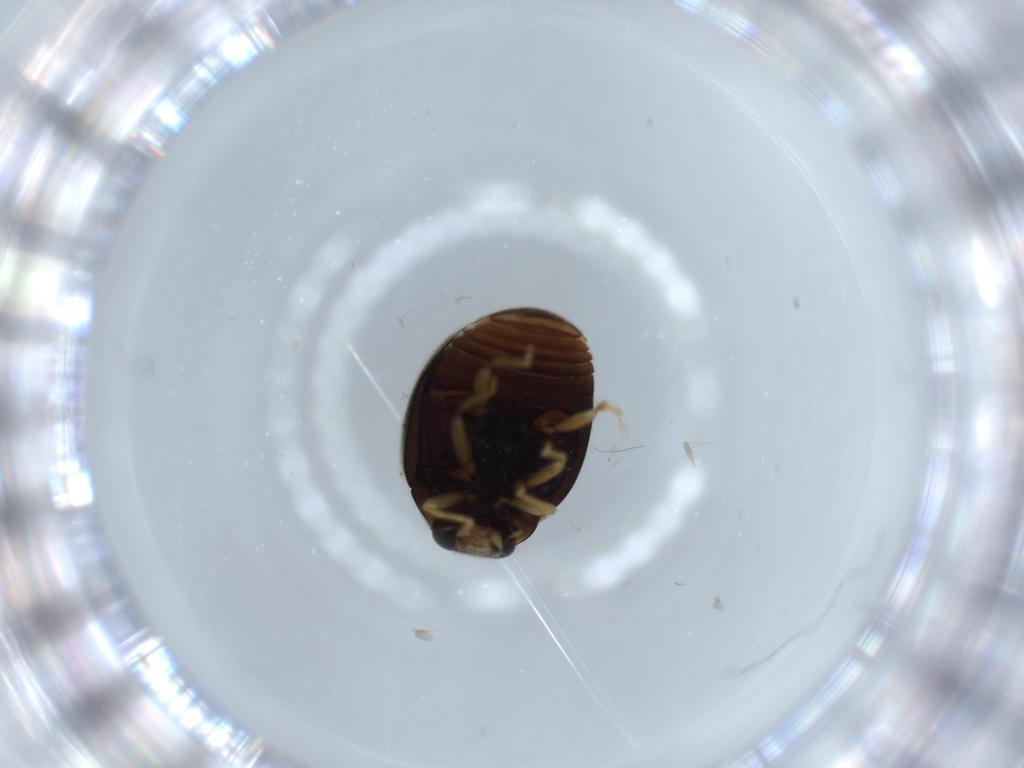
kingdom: Animalia
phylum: Arthropoda
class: Insecta
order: Coleoptera
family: Coccinellidae
